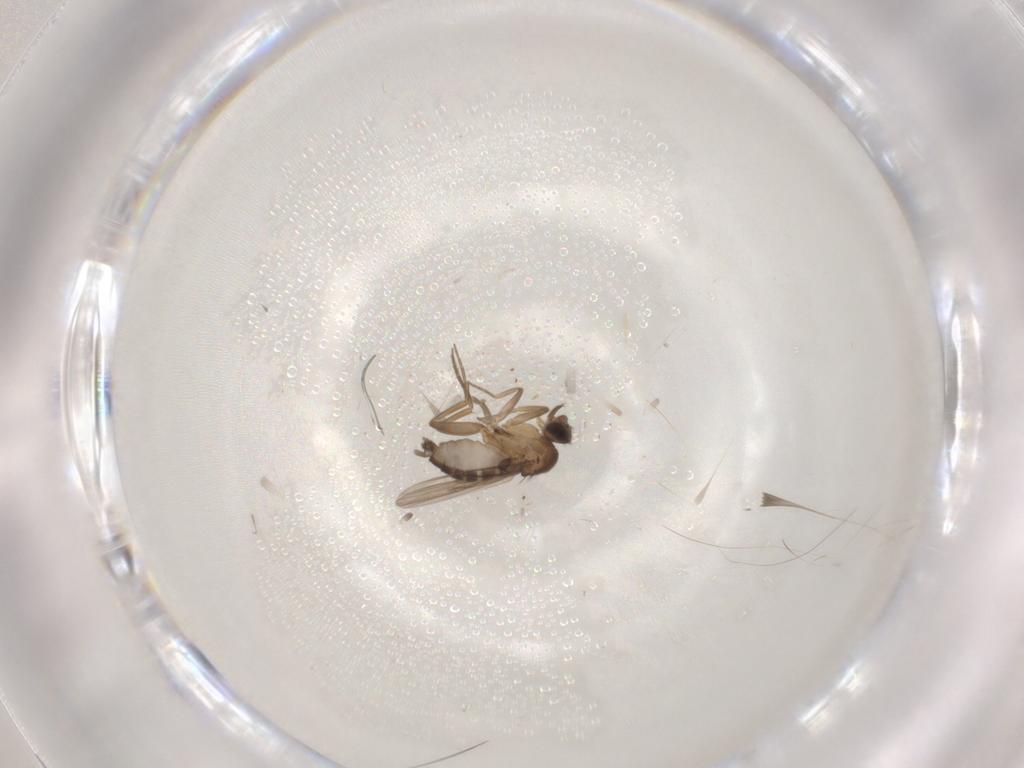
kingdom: Animalia
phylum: Arthropoda
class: Insecta
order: Diptera
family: Phoridae
